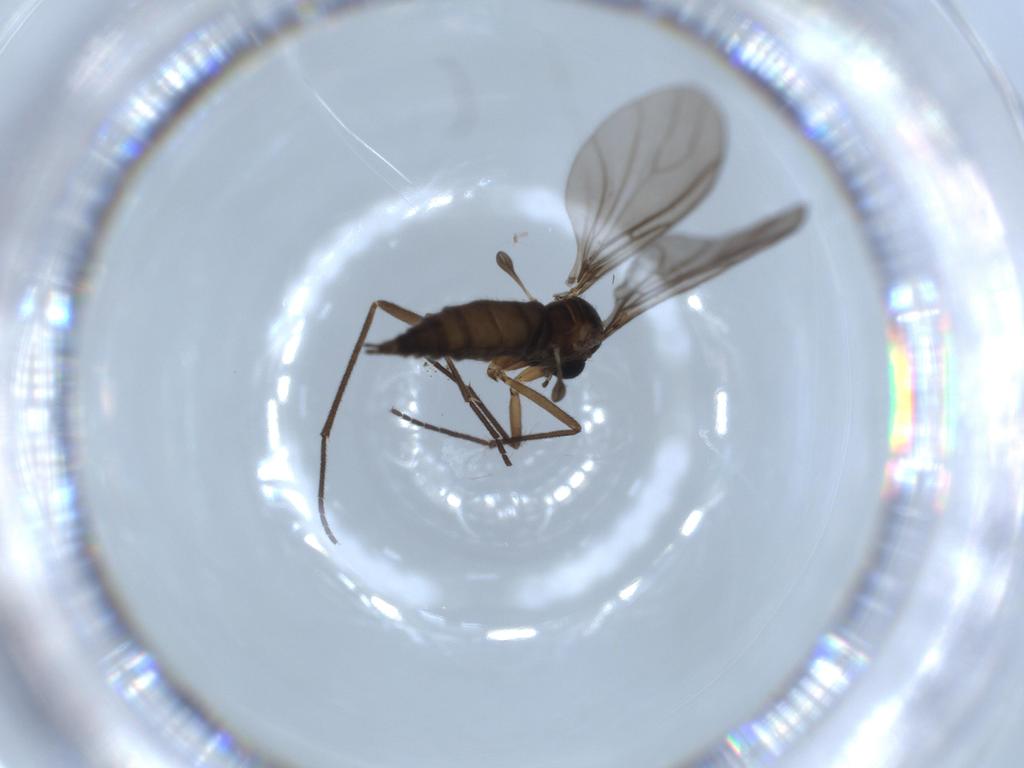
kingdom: Animalia
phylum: Arthropoda
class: Insecta
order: Diptera
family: Sciaridae
